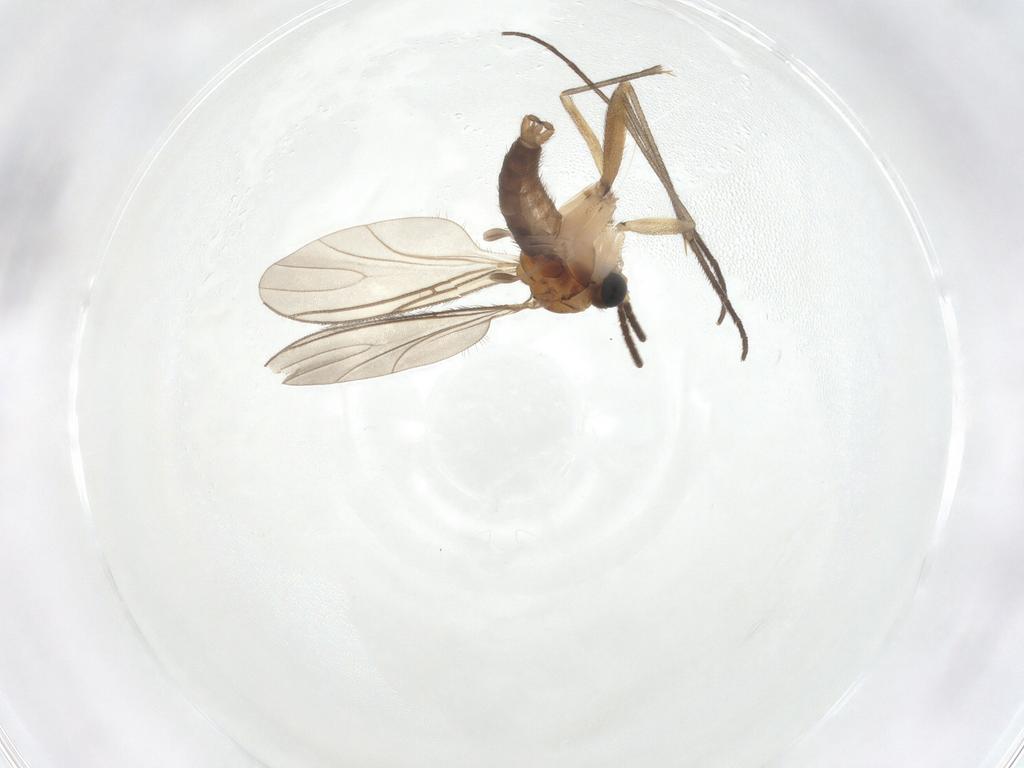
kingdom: Animalia
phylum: Arthropoda
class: Insecta
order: Diptera
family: Sciaridae
